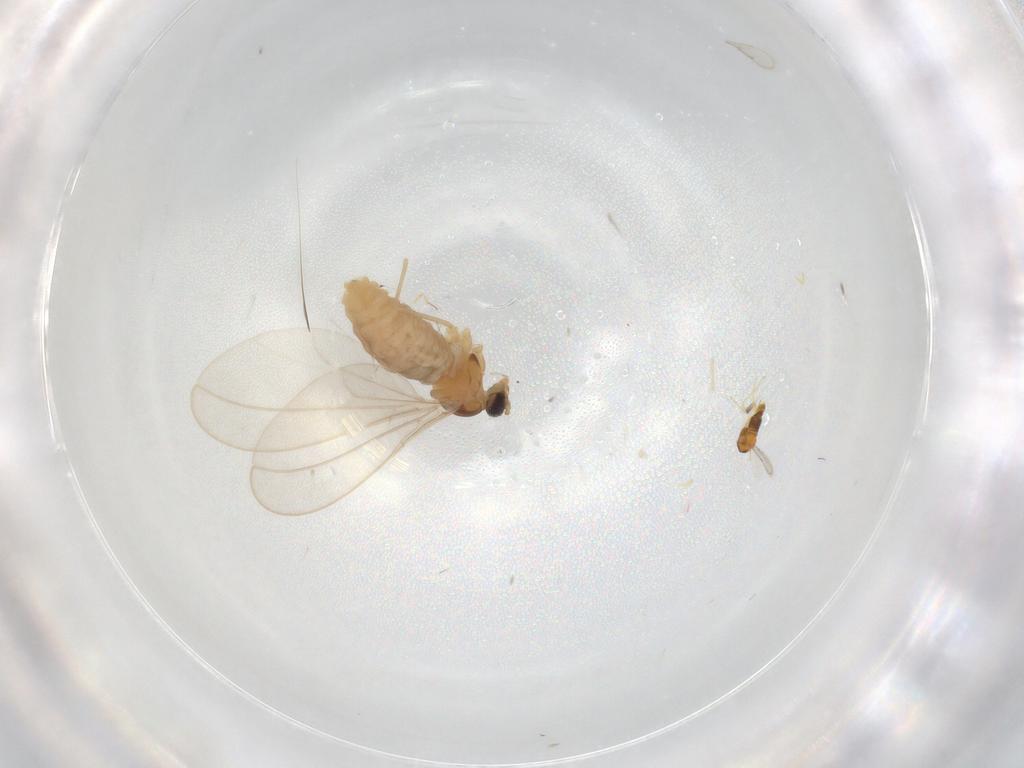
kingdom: Animalia
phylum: Arthropoda
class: Insecta
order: Diptera
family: Cecidomyiidae
